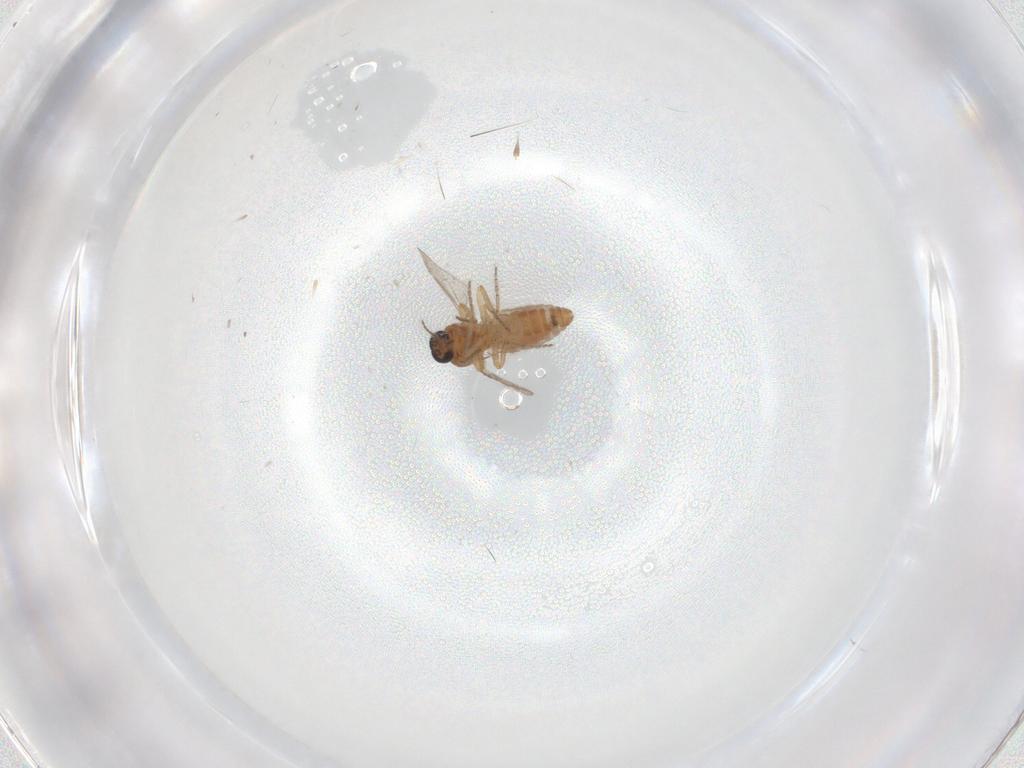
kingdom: Animalia
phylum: Arthropoda
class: Insecta
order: Diptera
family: Ceratopogonidae
